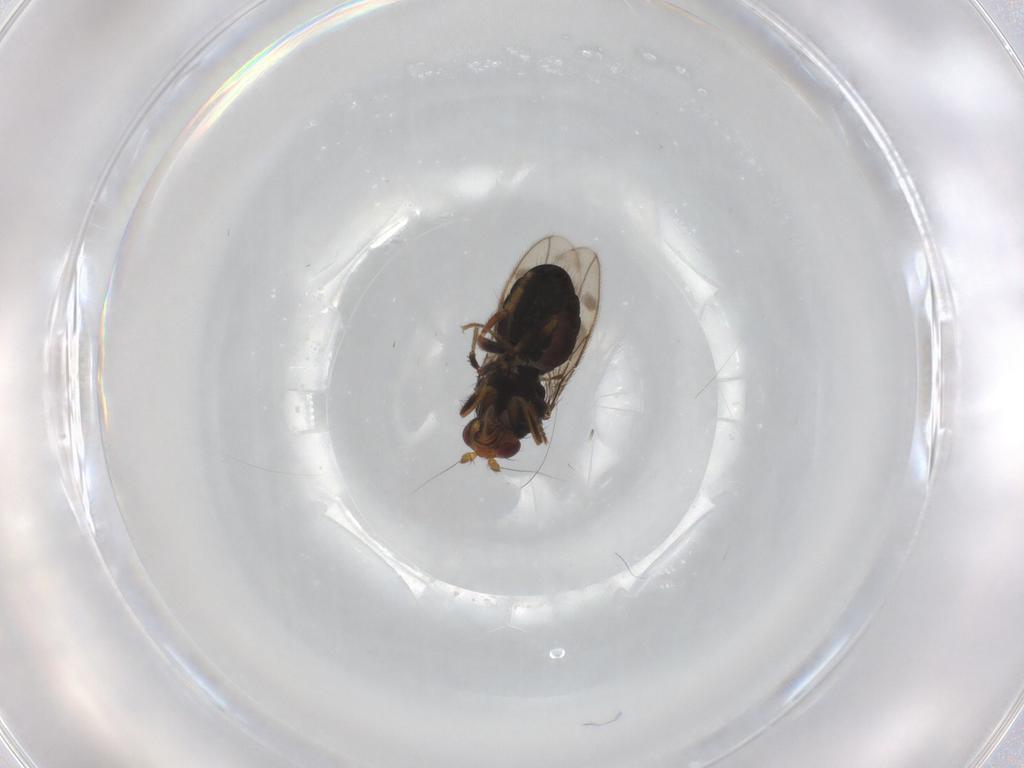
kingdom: Animalia
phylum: Arthropoda
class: Insecta
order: Diptera
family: Sphaeroceridae
